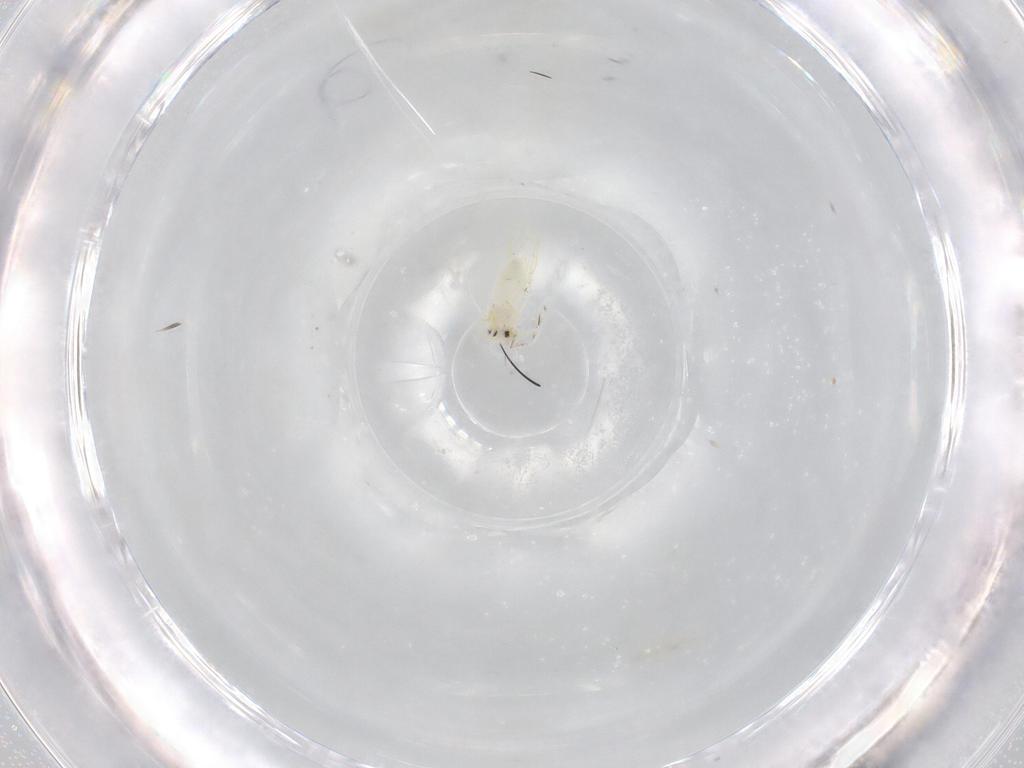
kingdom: Animalia
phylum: Arthropoda
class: Insecta
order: Hemiptera
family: Aleyrodidae
